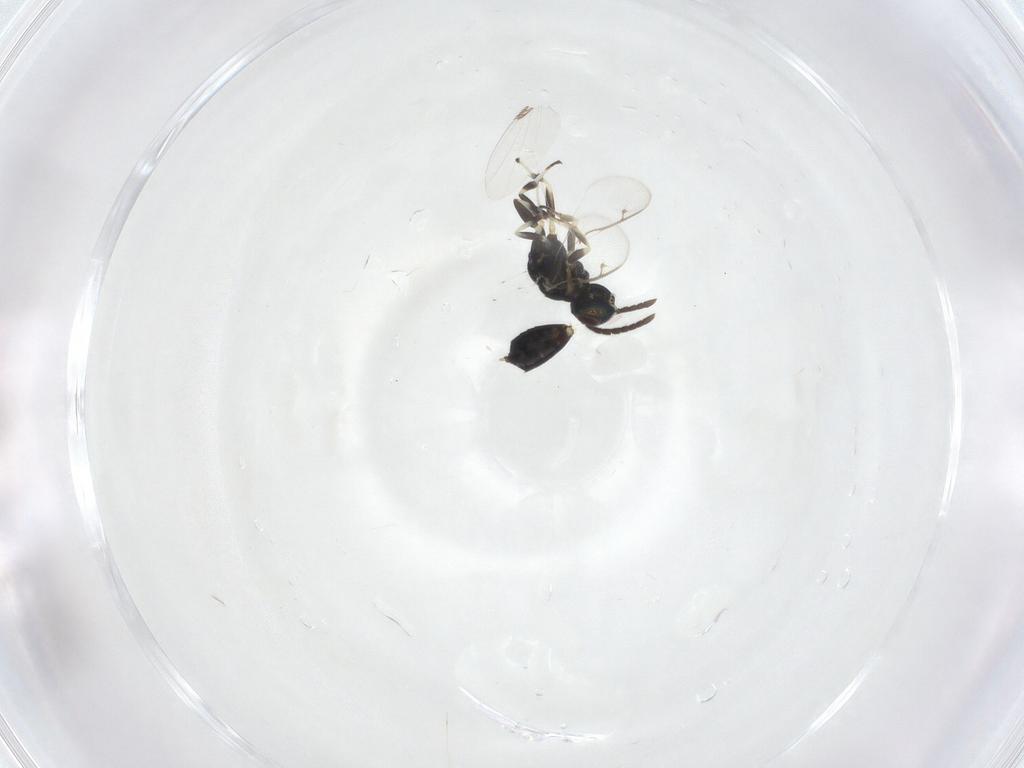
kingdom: Animalia
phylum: Arthropoda
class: Insecta
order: Hymenoptera
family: Eupelmidae
